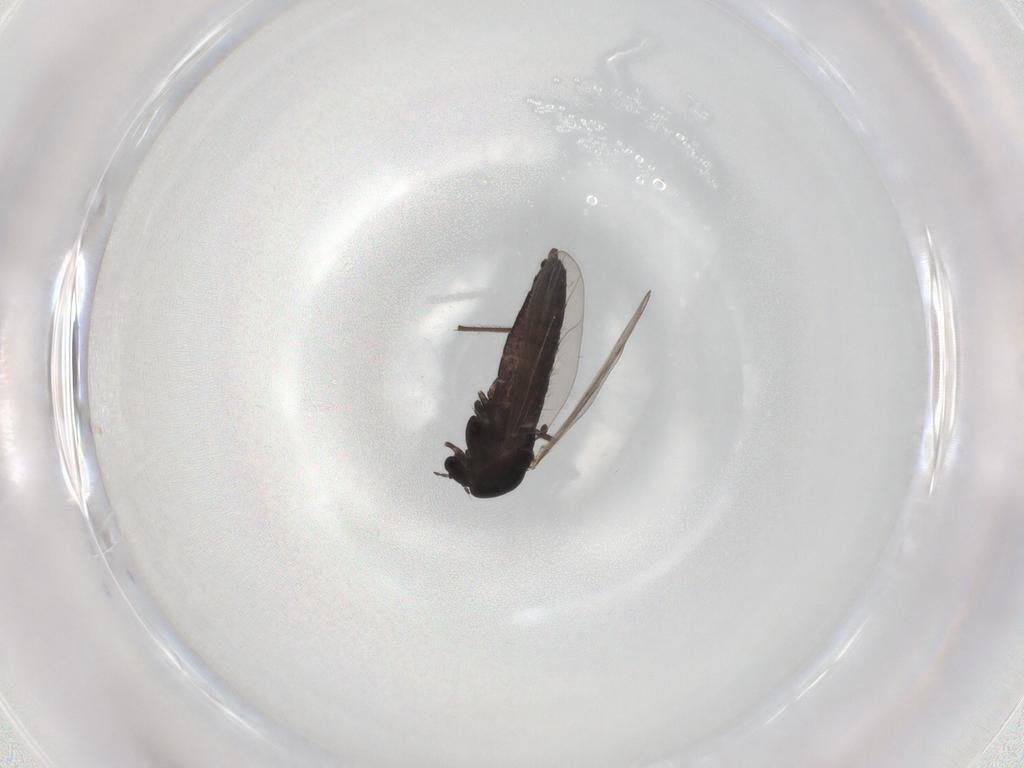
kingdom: Animalia
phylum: Arthropoda
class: Insecta
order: Diptera
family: Chironomidae
